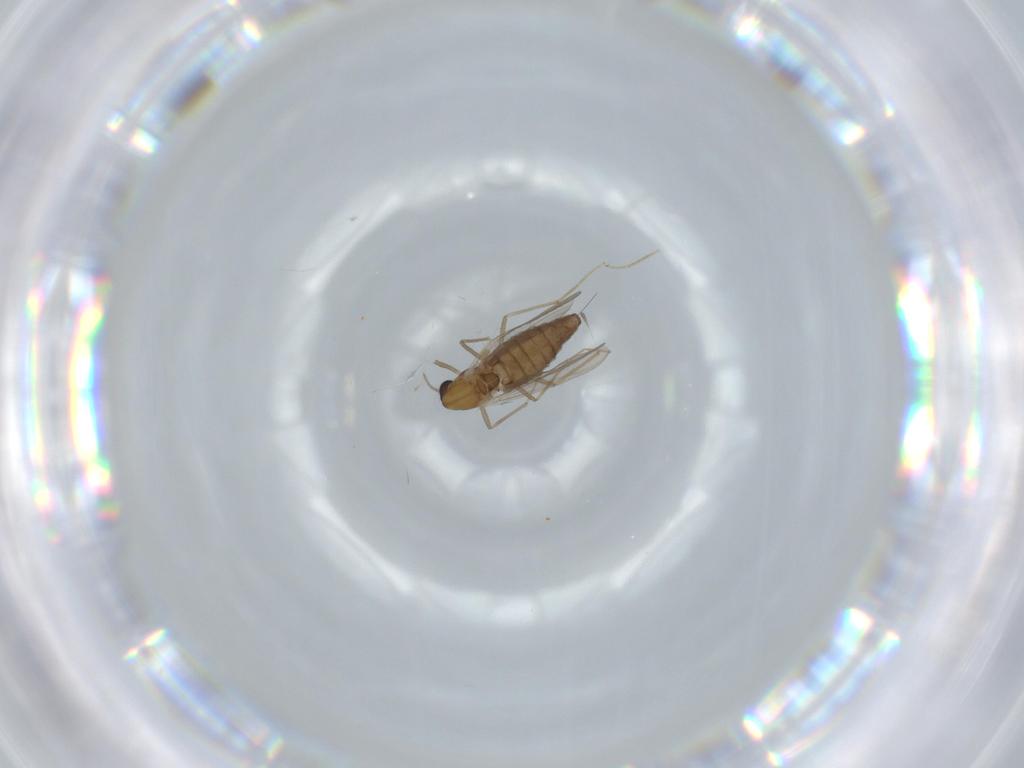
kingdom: Animalia
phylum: Arthropoda
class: Insecta
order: Diptera
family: Chironomidae
